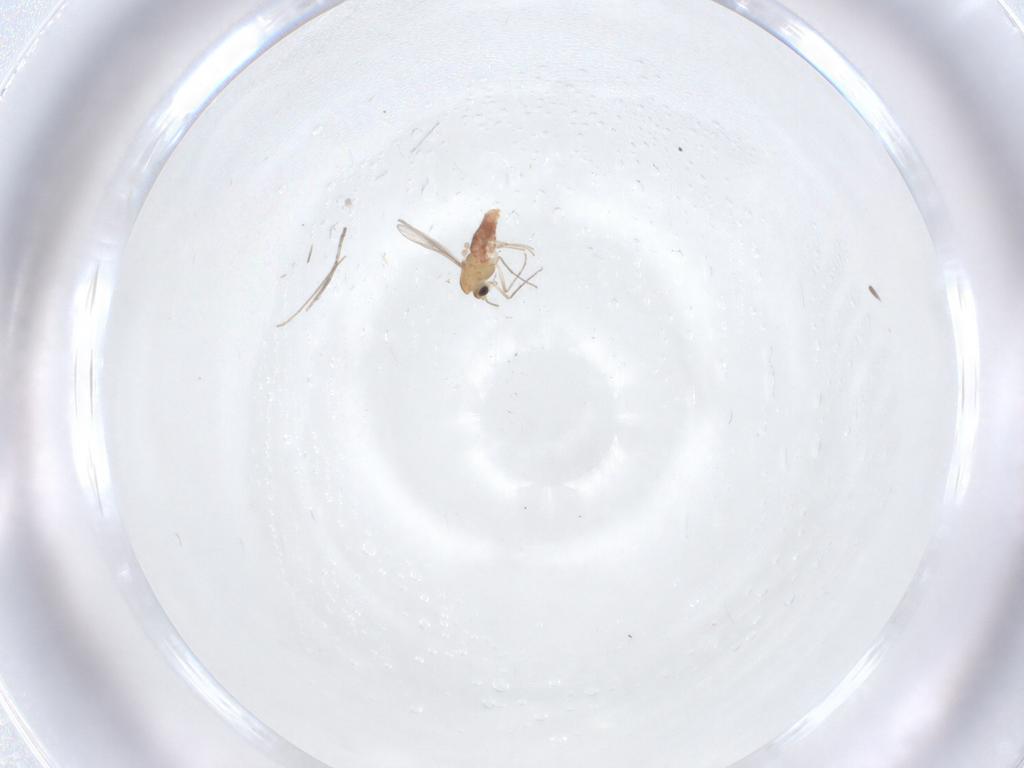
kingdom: Animalia
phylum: Arthropoda
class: Insecta
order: Diptera
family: Chironomidae
